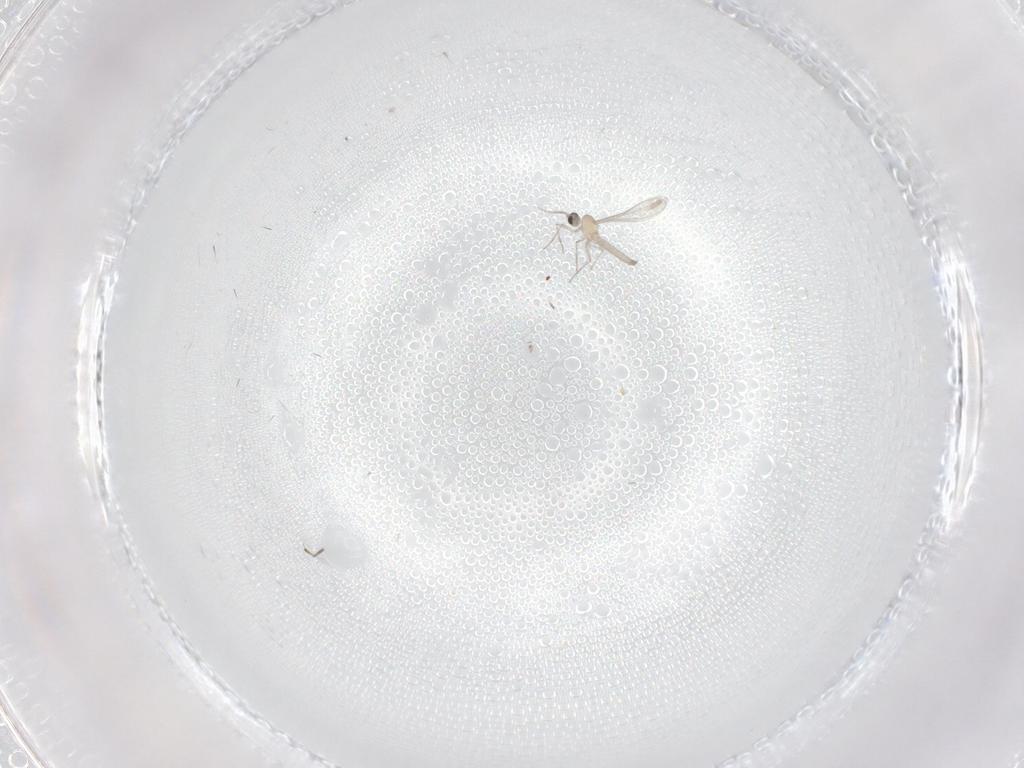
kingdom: Animalia
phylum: Arthropoda
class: Insecta
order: Diptera
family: Cecidomyiidae
